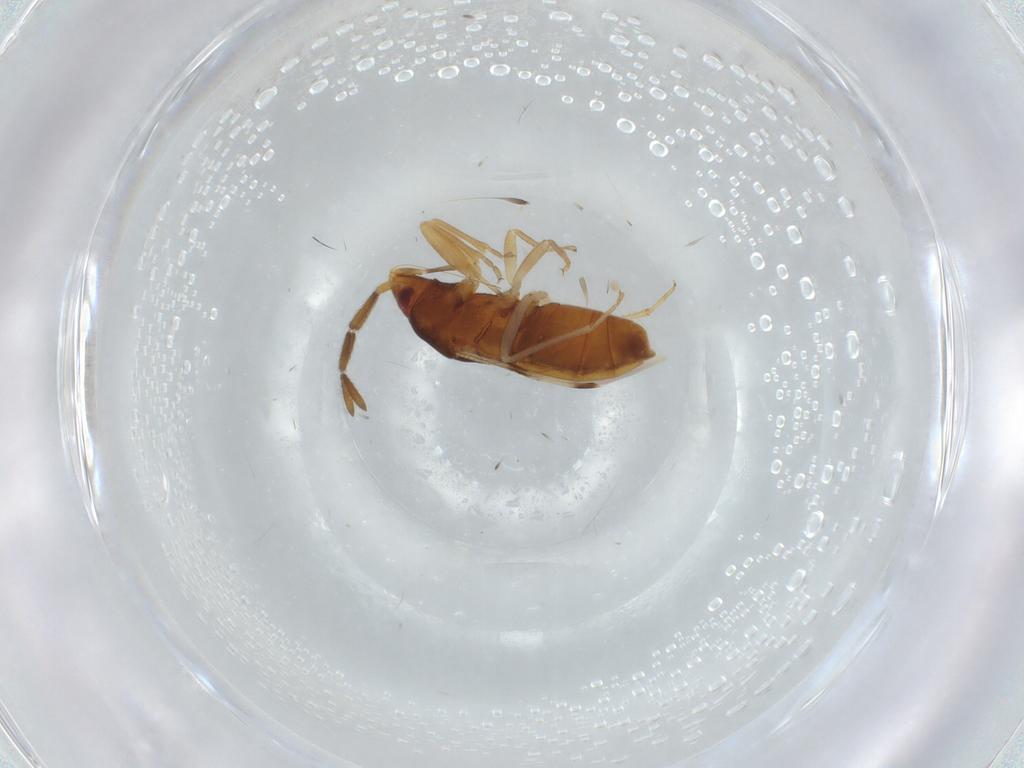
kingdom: Animalia
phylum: Arthropoda
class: Insecta
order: Hemiptera
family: Rhyparochromidae
